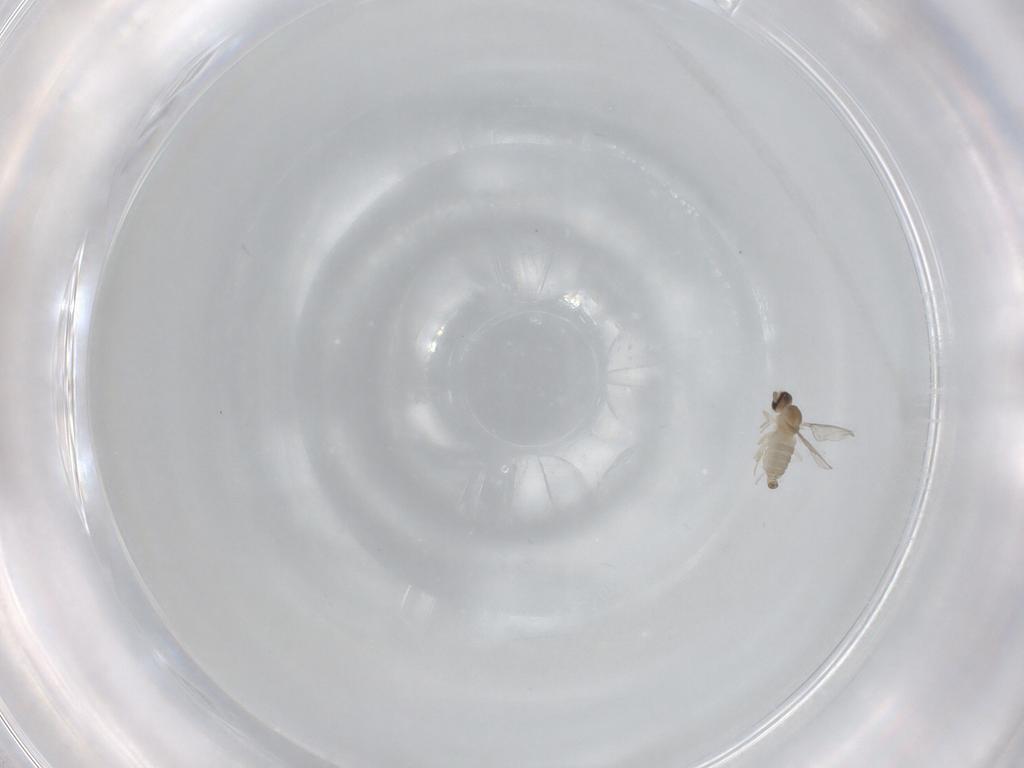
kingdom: Animalia
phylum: Arthropoda
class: Insecta
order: Diptera
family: Cecidomyiidae
